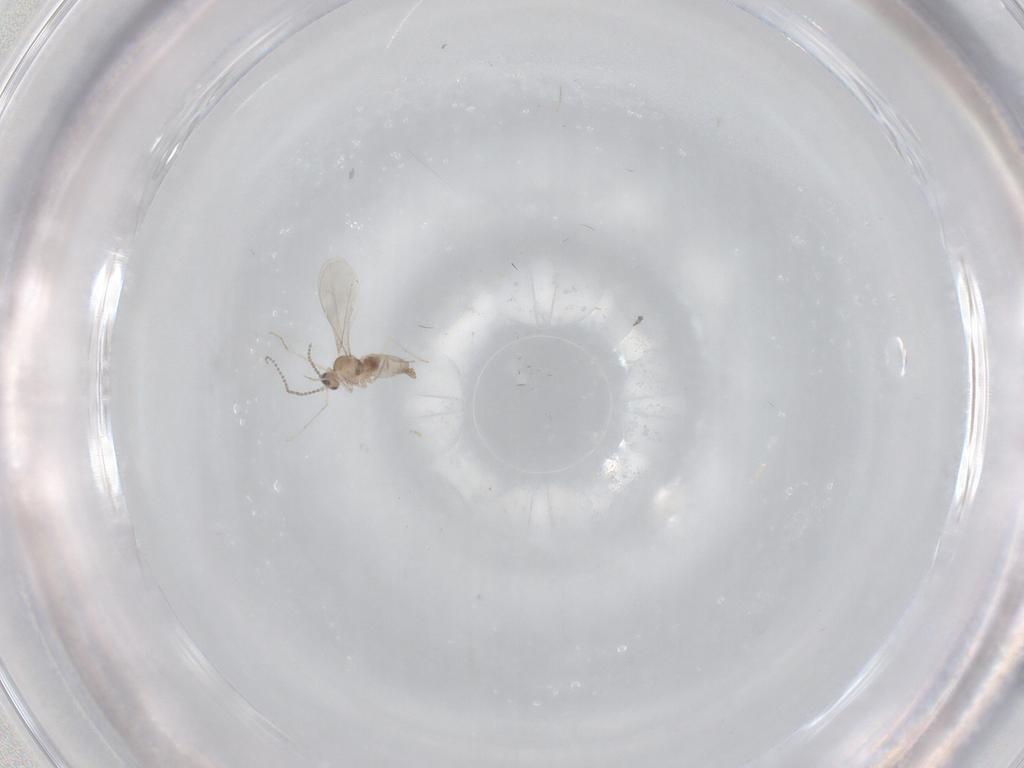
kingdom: Animalia
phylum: Arthropoda
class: Insecta
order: Diptera
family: Cecidomyiidae
